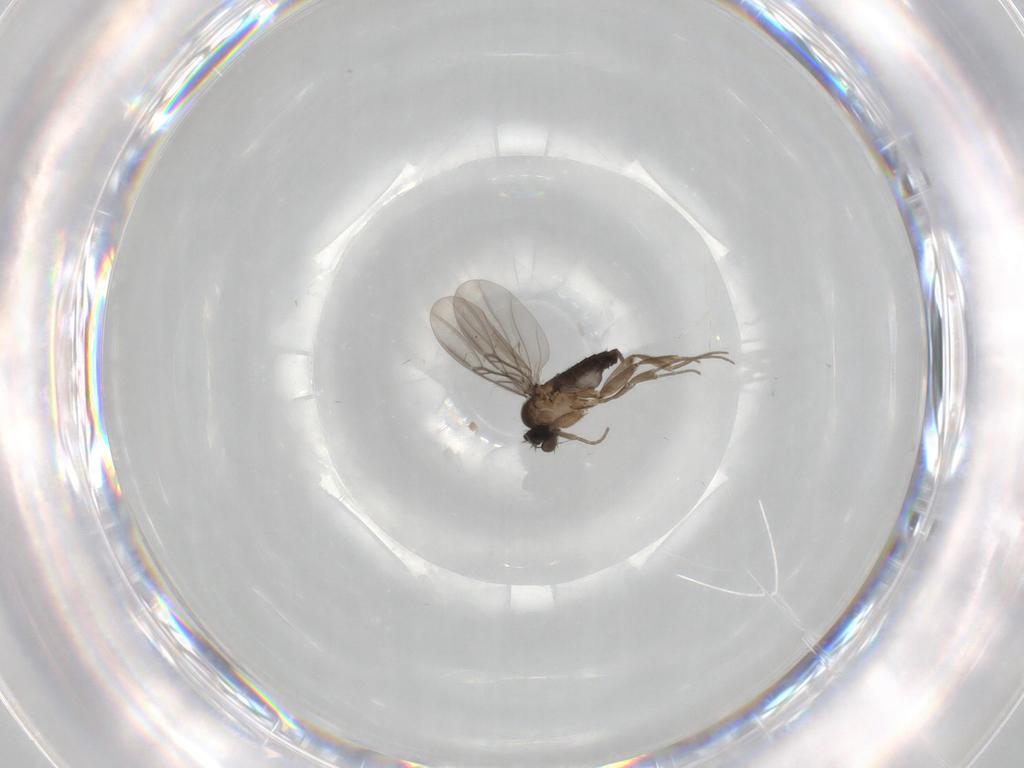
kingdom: Animalia
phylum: Arthropoda
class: Insecta
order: Diptera
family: Phoridae
